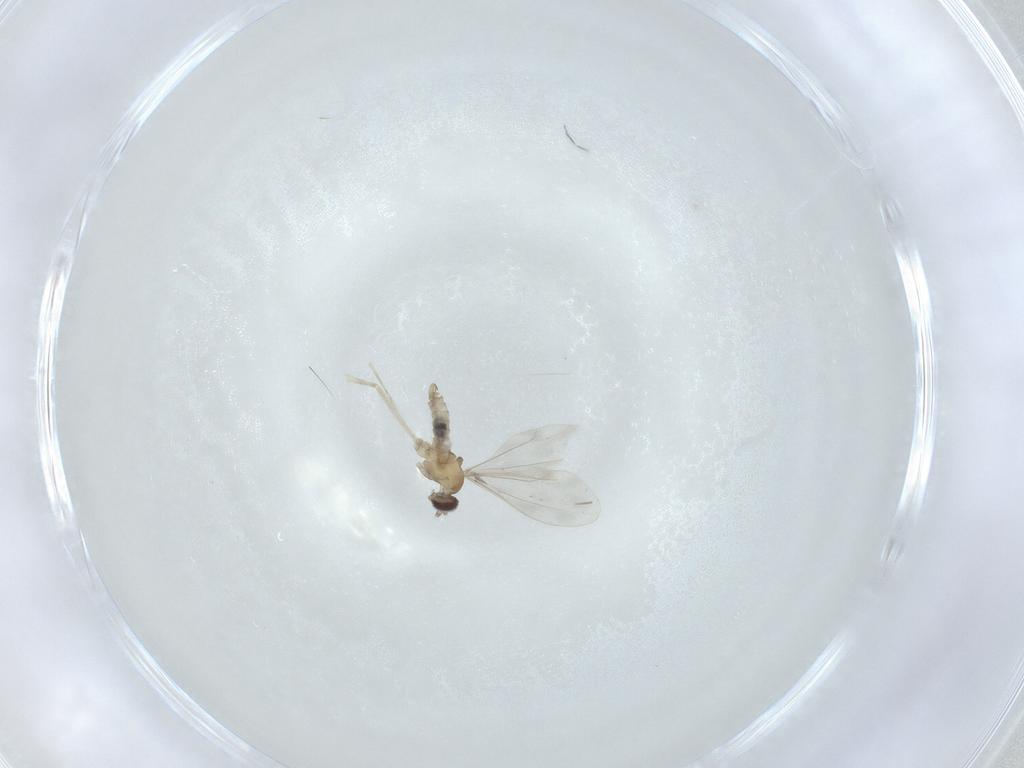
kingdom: Animalia
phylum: Arthropoda
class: Insecta
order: Diptera
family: Cecidomyiidae
